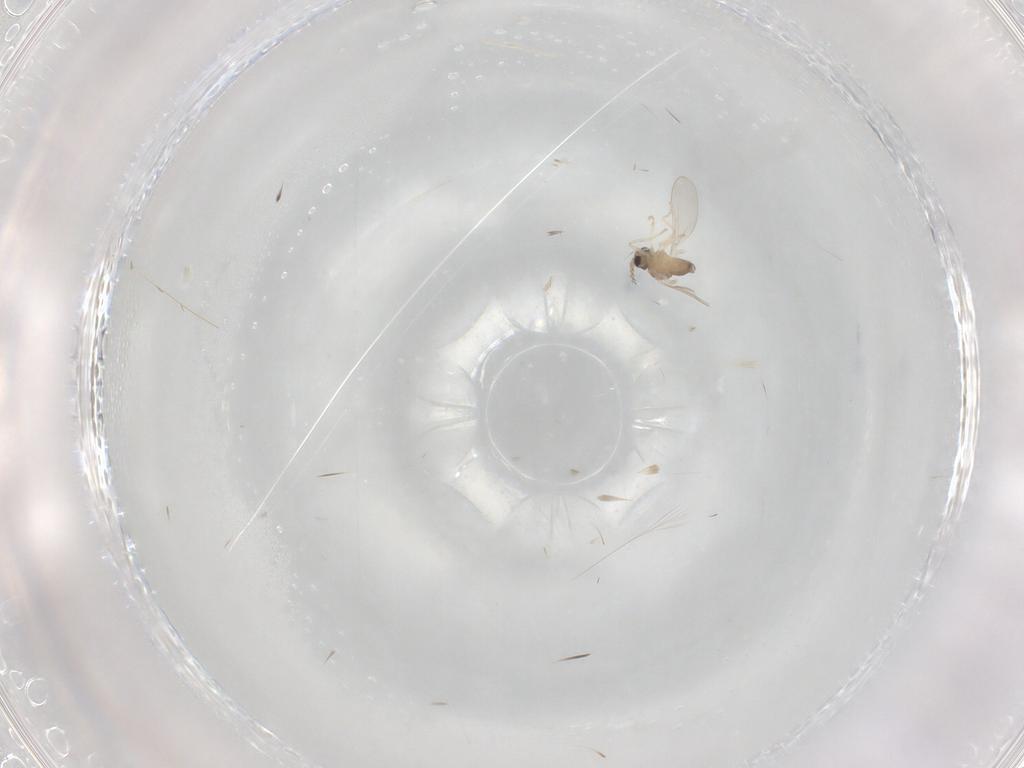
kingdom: Animalia
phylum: Arthropoda
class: Insecta
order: Diptera
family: Cecidomyiidae
